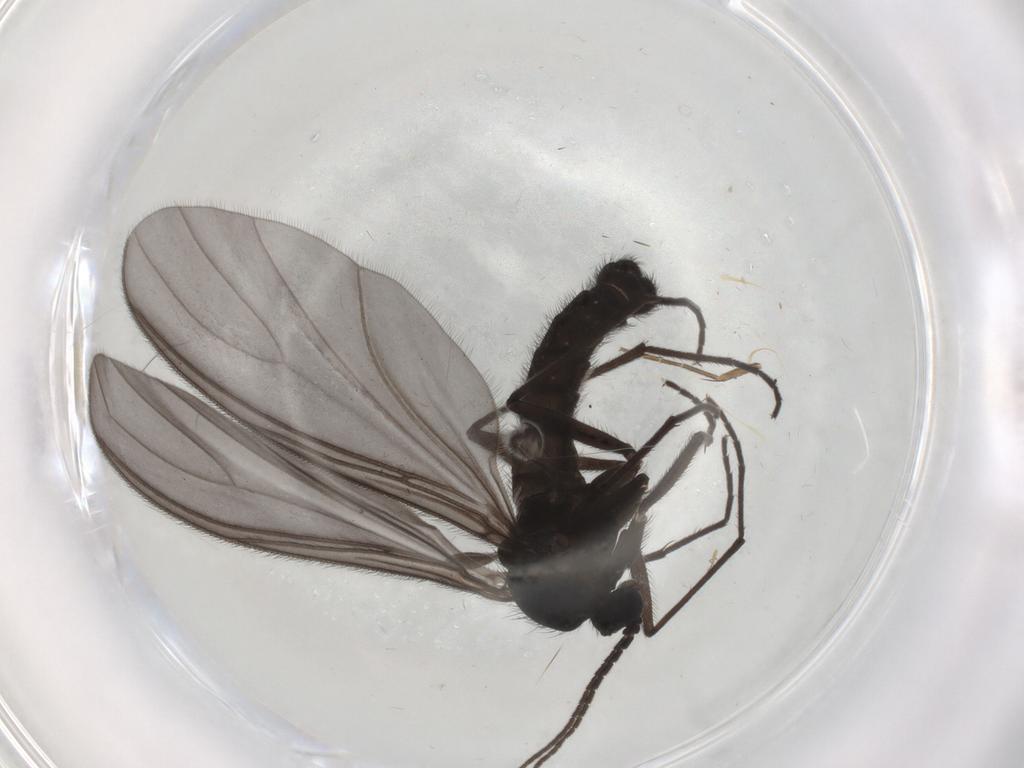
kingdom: Animalia
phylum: Arthropoda
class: Insecta
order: Diptera
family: Sciaridae
